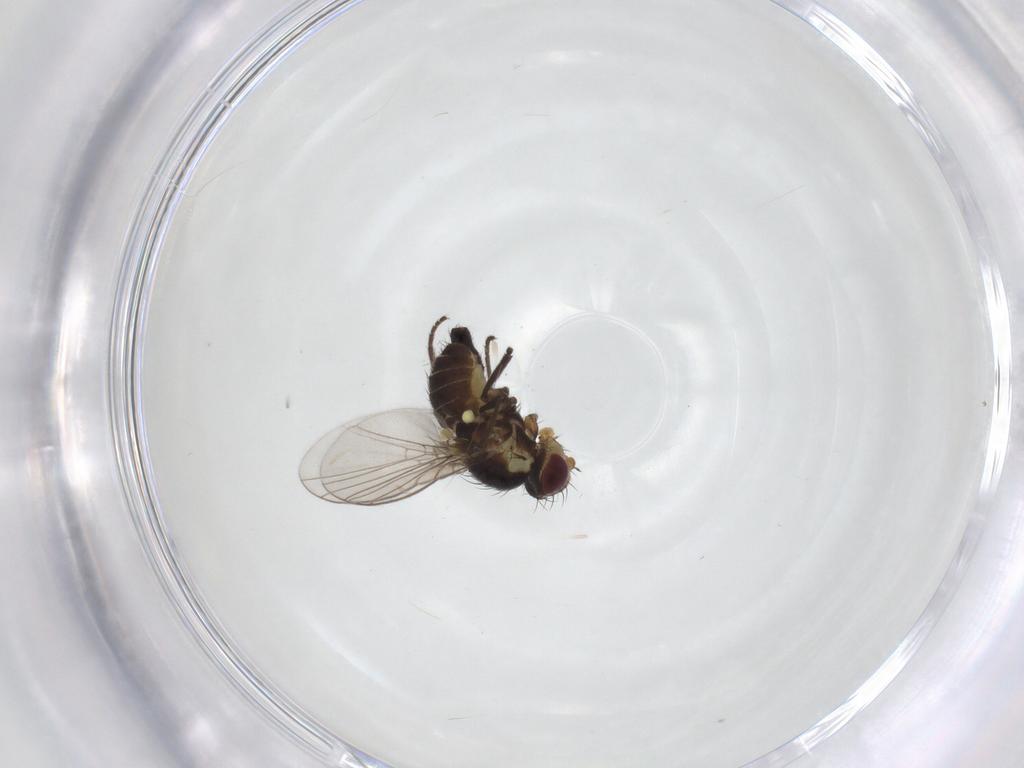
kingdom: Animalia
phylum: Arthropoda
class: Insecta
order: Diptera
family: Agromyzidae
